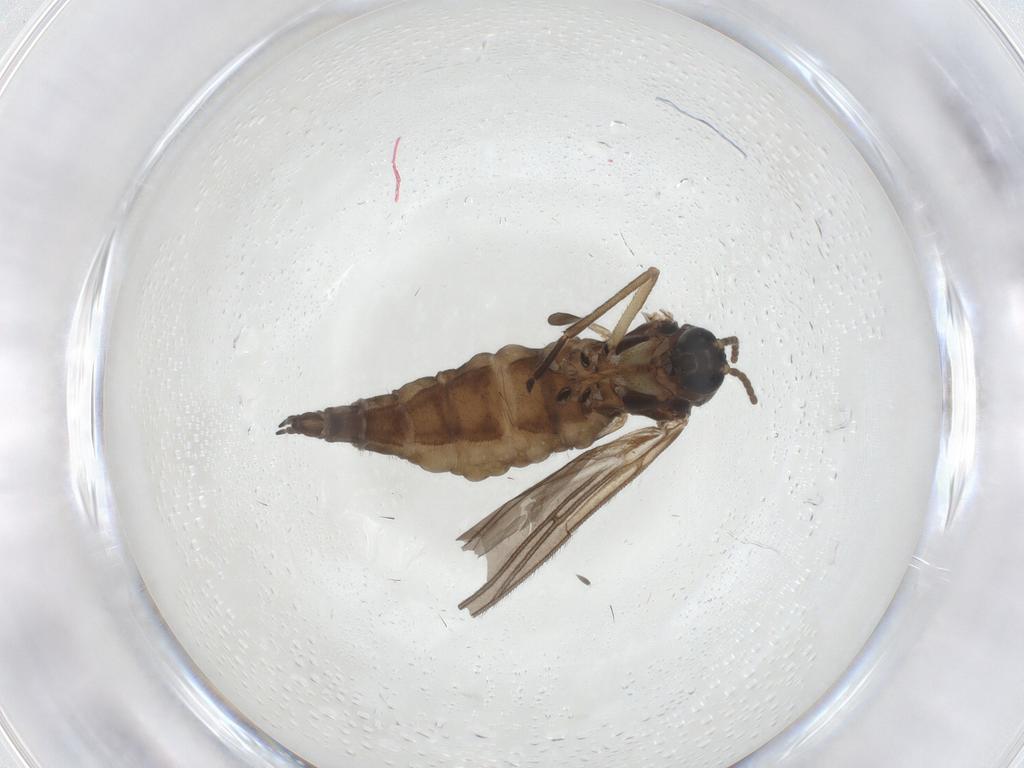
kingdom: Animalia
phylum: Arthropoda
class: Insecta
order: Diptera
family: Sciaridae
